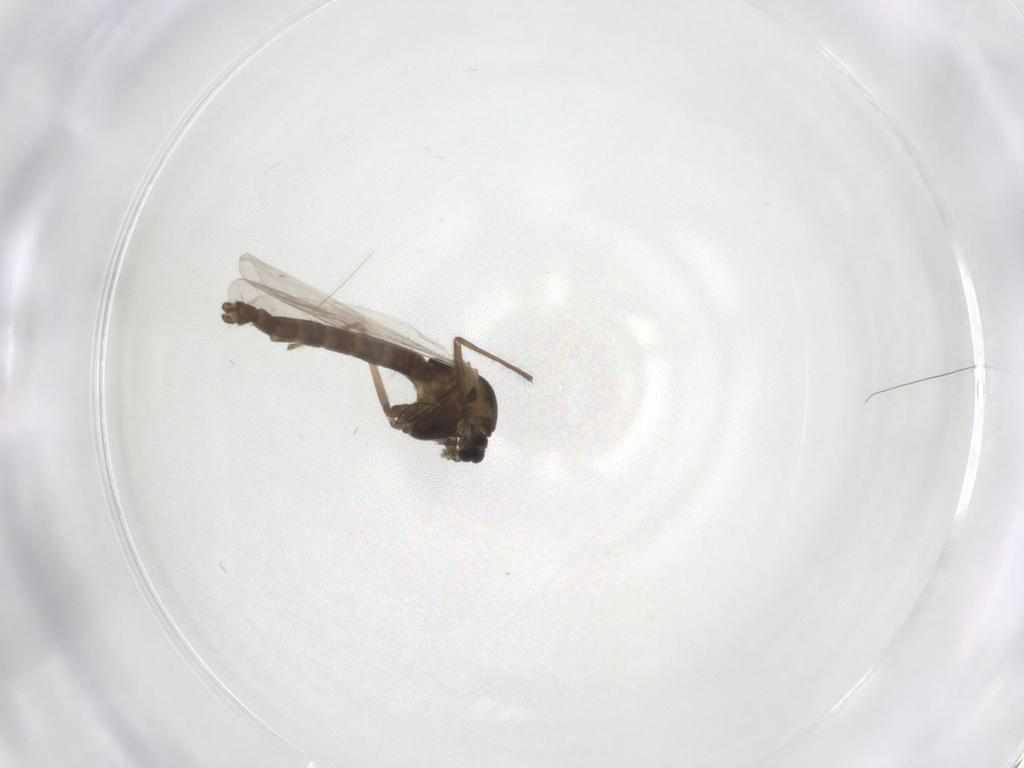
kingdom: Animalia
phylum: Arthropoda
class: Insecta
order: Diptera
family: Chironomidae
